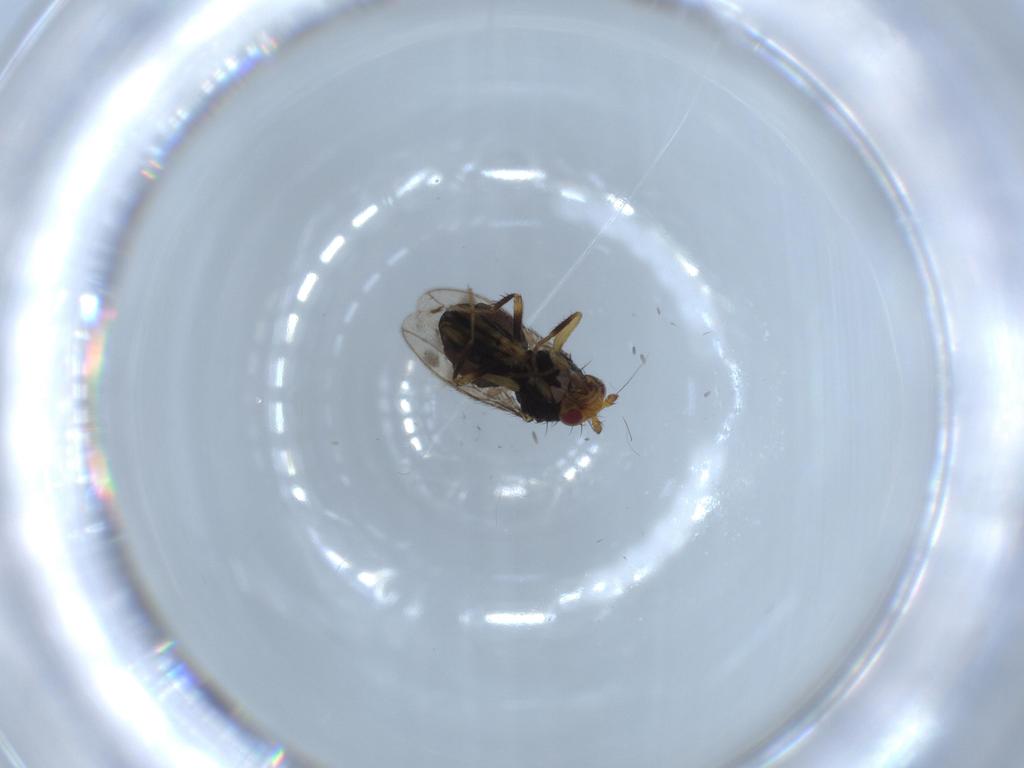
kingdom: Animalia
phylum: Arthropoda
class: Insecta
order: Diptera
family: Sphaeroceridae
